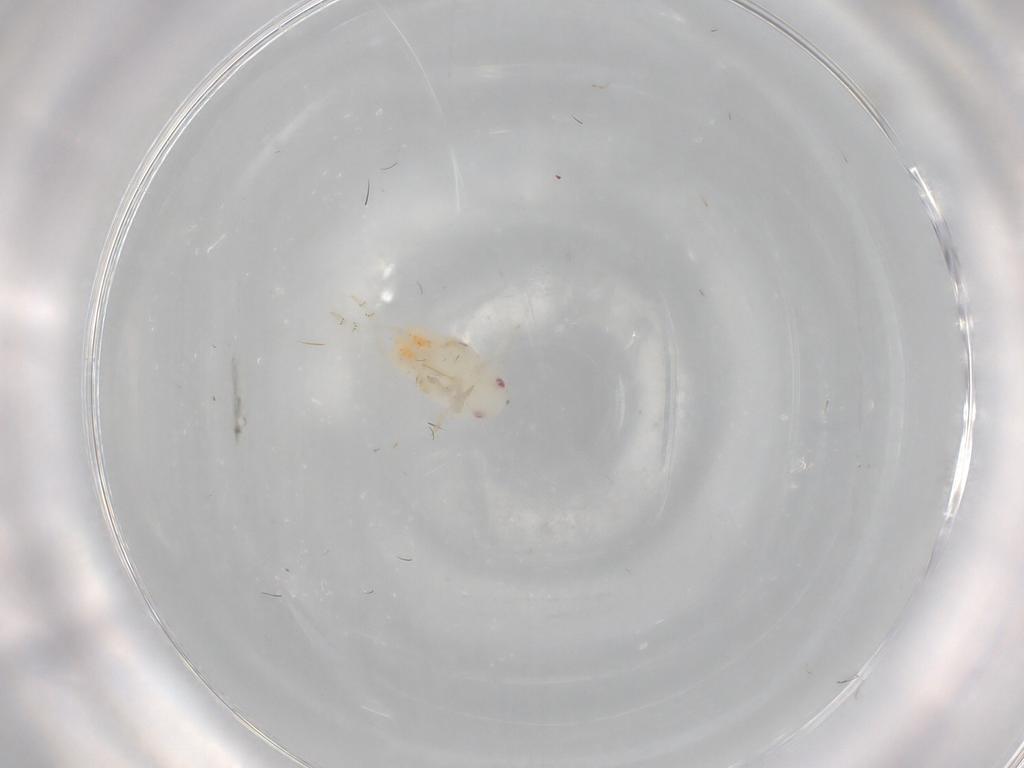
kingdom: Animalia
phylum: Arthropoda
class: Insecta
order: Hemiptera
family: Flatidae
